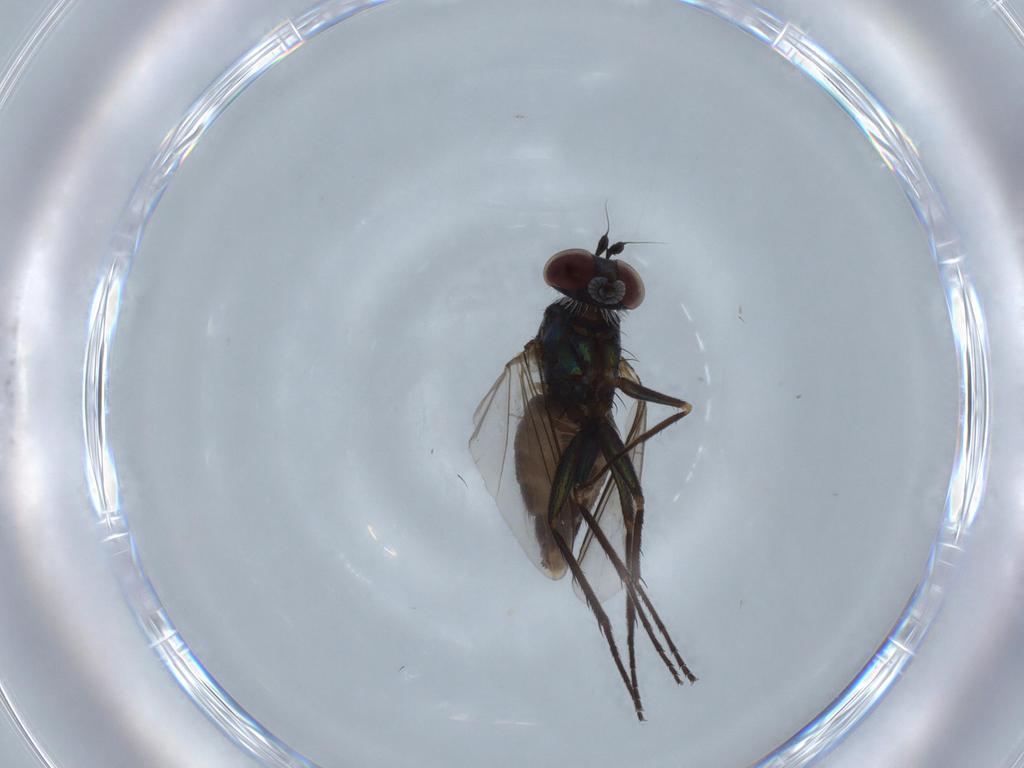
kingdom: Animalia
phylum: Arthropoda
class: Insecta
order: Diptera
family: Dolichopodidae
